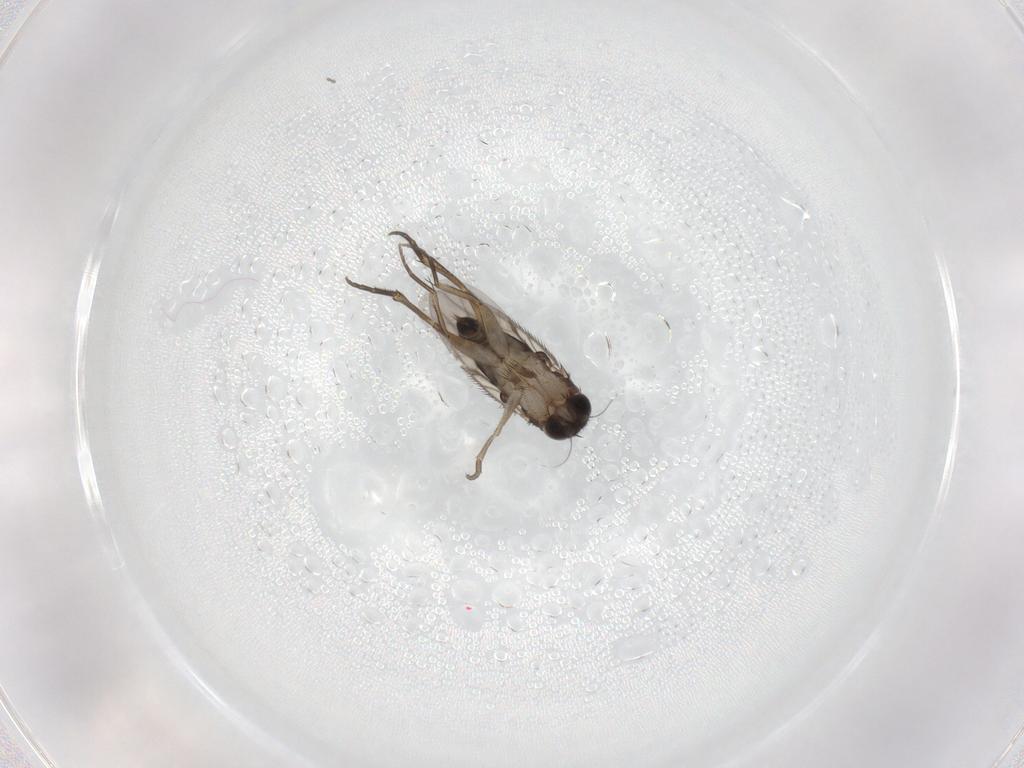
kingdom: Animalia
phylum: Arthropoda
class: Insecta
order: Diptera
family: Phoridae
